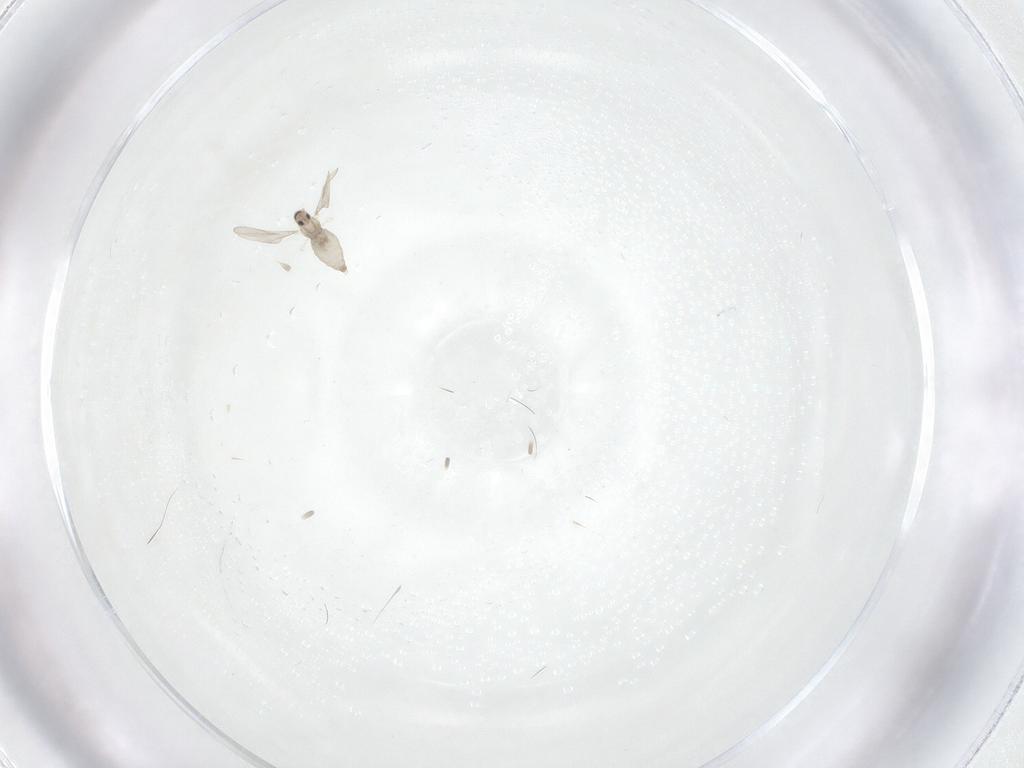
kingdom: Animalia
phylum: Arthropoda
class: Insecta
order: Diptera
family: Cecidomyiidae
